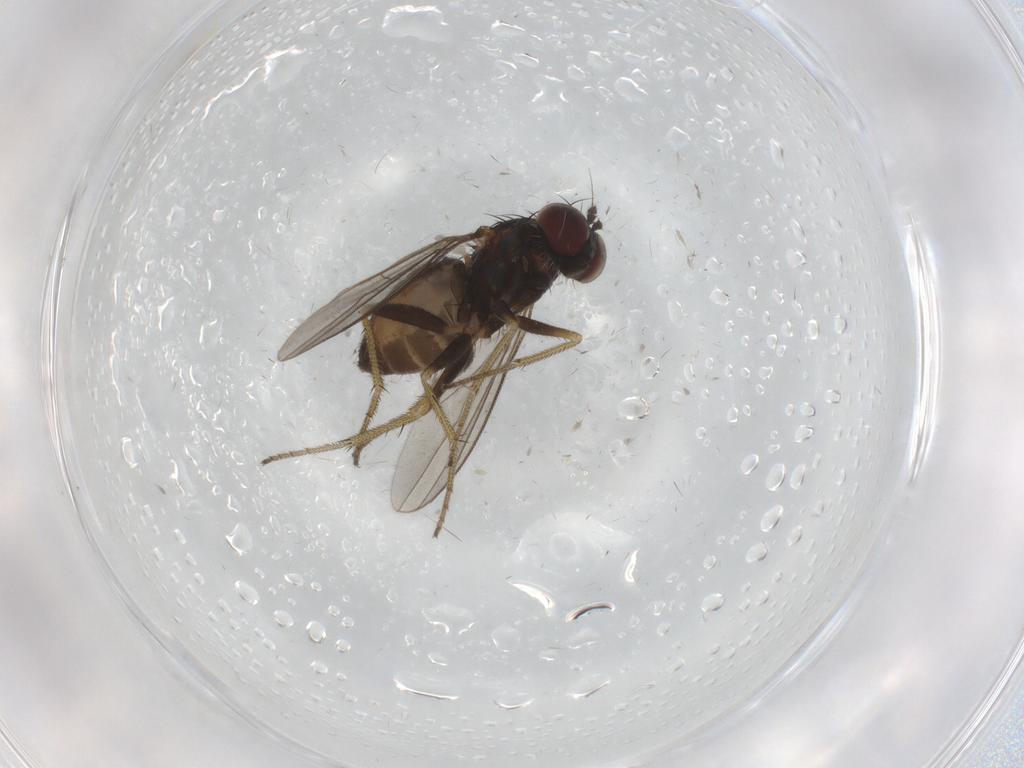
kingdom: Animalia
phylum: Arthropoda
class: Insecta
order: Diptera
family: Dolichopodidae
